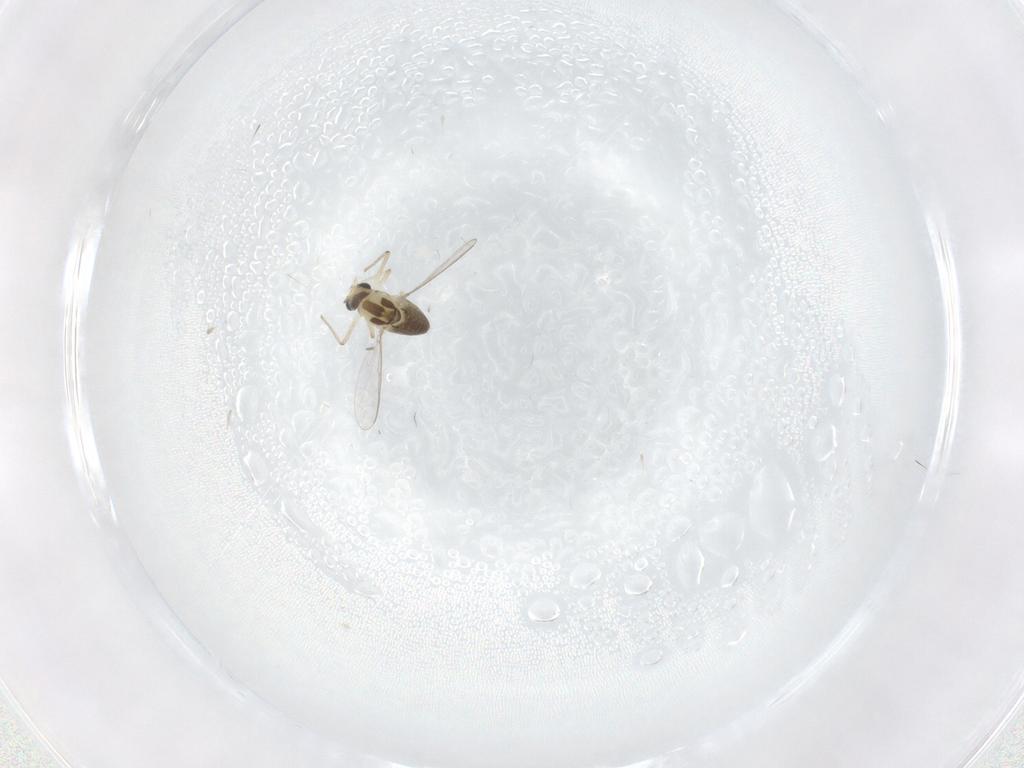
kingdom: Animalia
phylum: Arthropoda
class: Insecta
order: Diptera
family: Chironomidae
